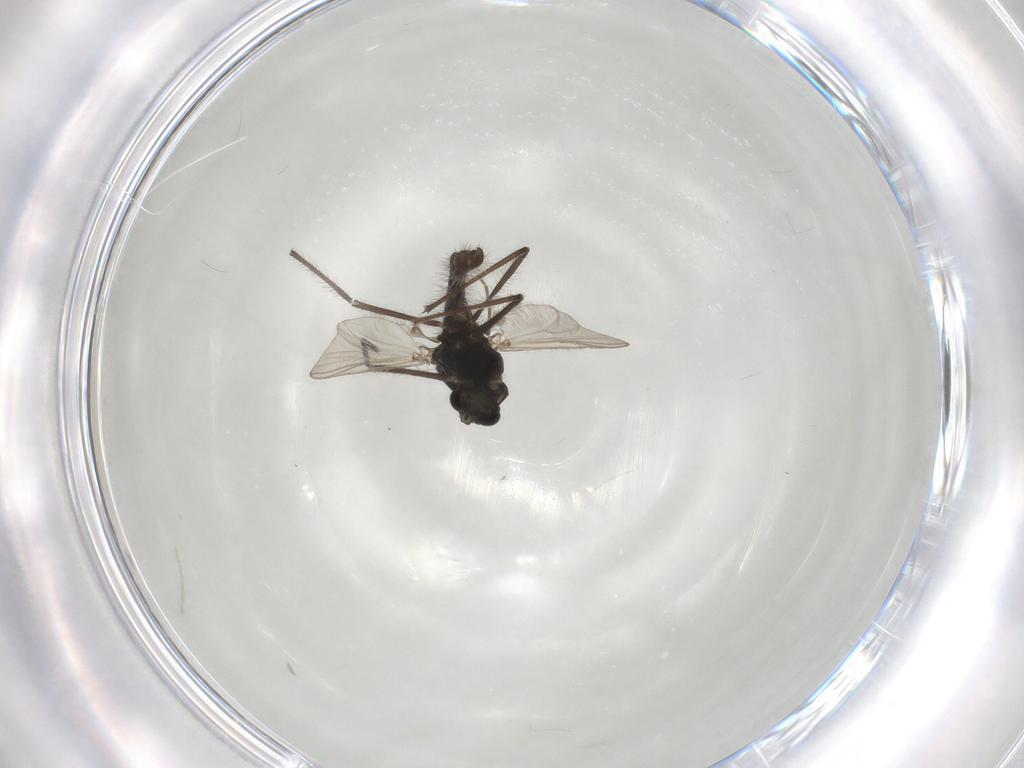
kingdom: Animalia
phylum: Arthropoda
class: Insecta
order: Diptera
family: Chironomidae
